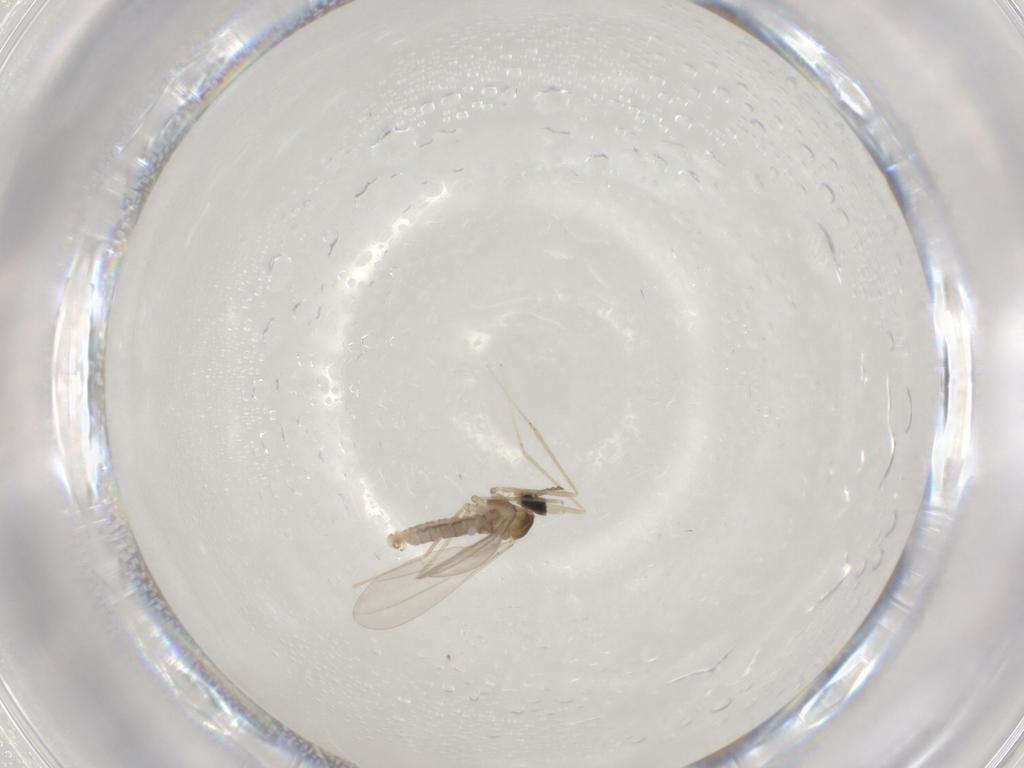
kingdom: Animalia
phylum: Arthropoda
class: Insecta
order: Diptera
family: Cecidomyiidae
